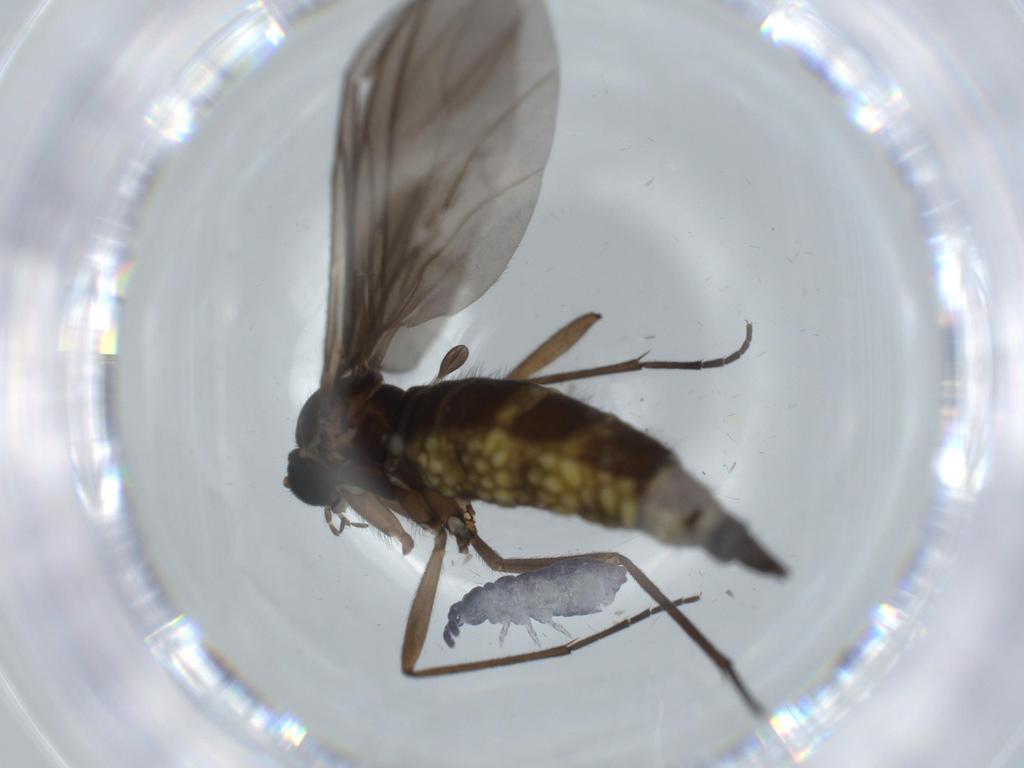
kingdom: Animalia
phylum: Arthropoda
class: Insecta
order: Diptera
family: Sciaridae
